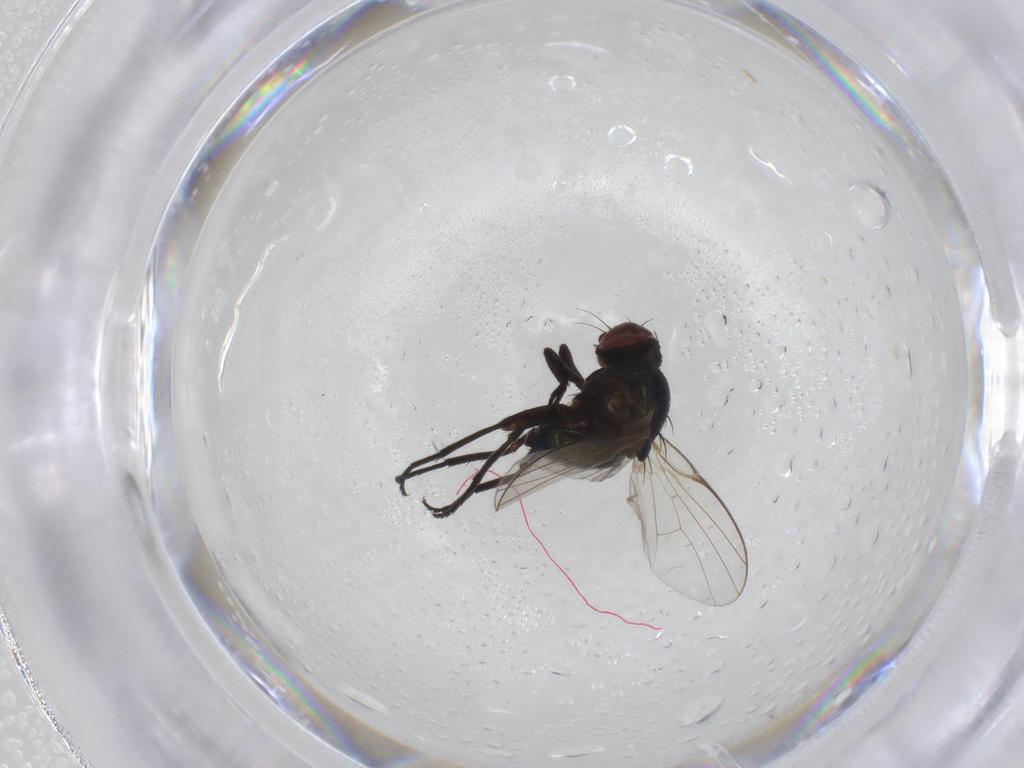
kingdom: Animalia
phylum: Arthropoda
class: Insecta
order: Diptera
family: Agromyzidae
